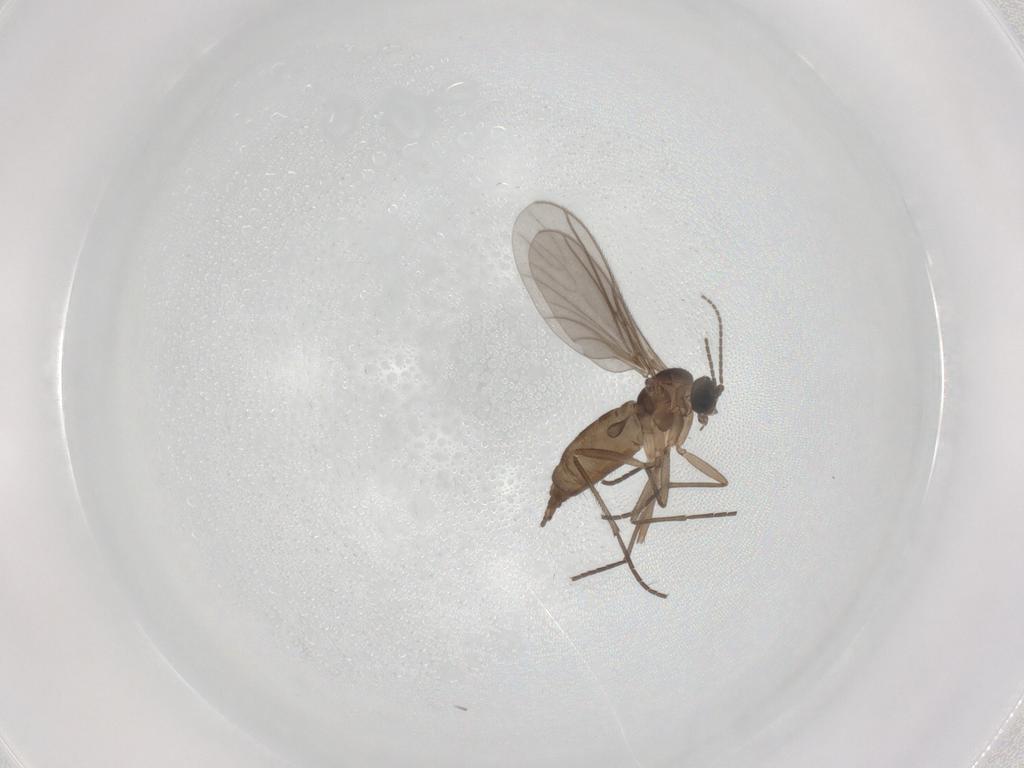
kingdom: Animalia
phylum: Arthropoda
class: Insecta
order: Diptera
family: Sciaridae
